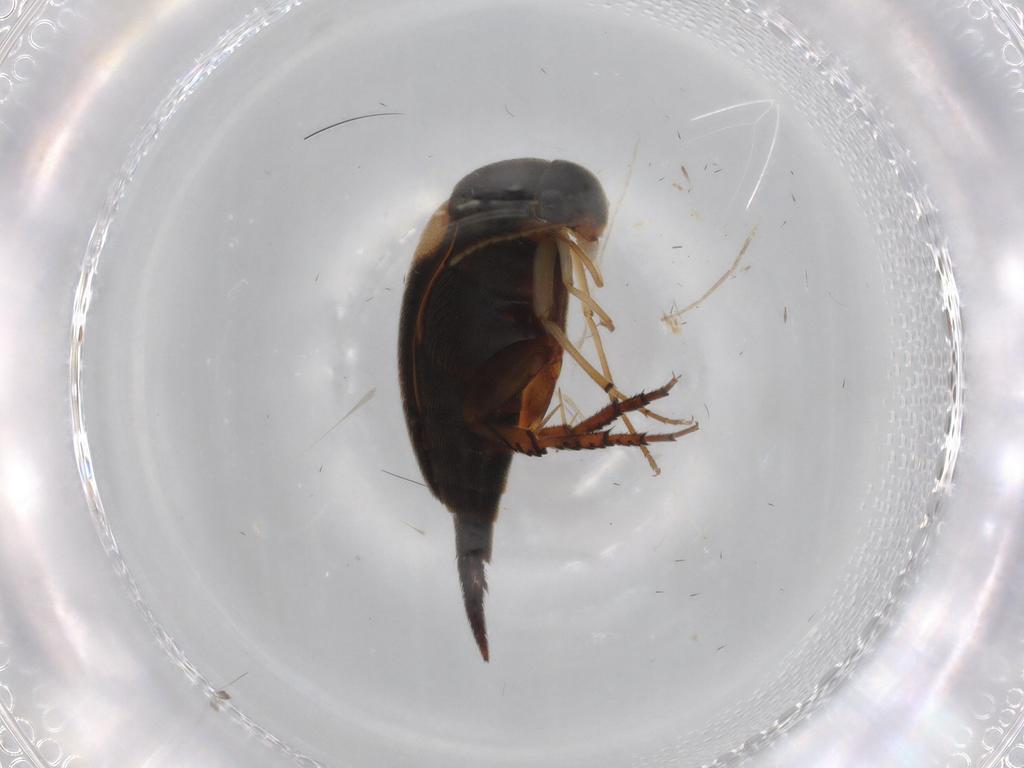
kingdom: Animalia
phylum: Arthropoda
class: Insecta
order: Coleoptera
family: Mordellidae
